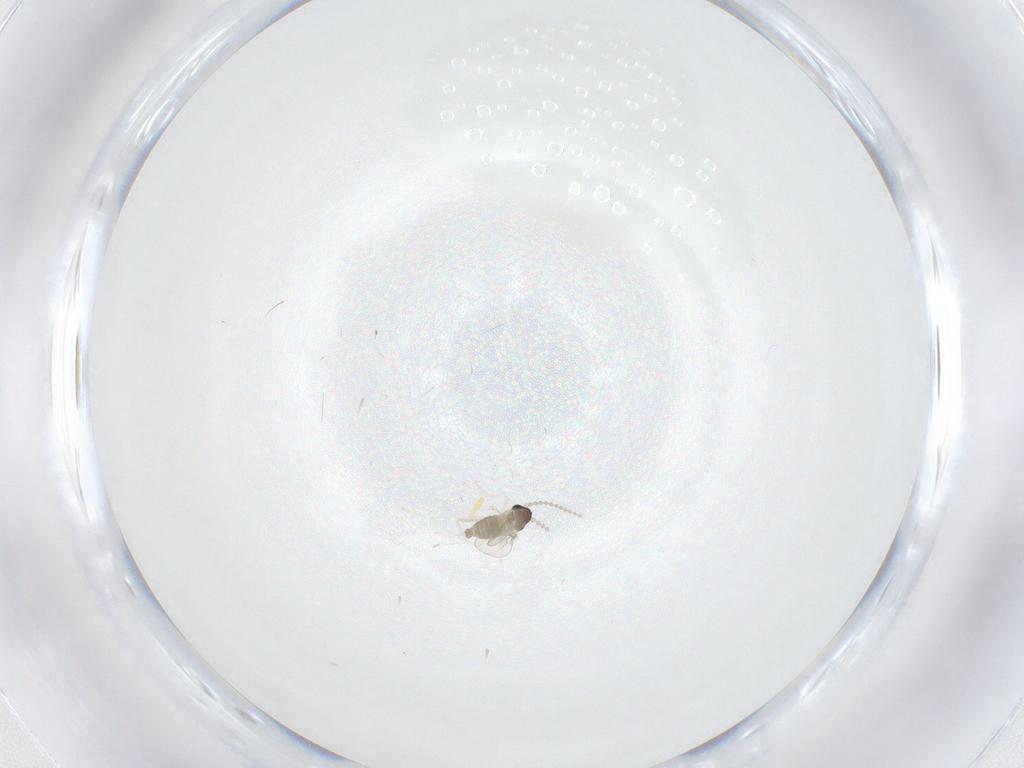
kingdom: Animalia
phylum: Arthropoda
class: Insecta
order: Diptera
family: Cecidomyiidae
